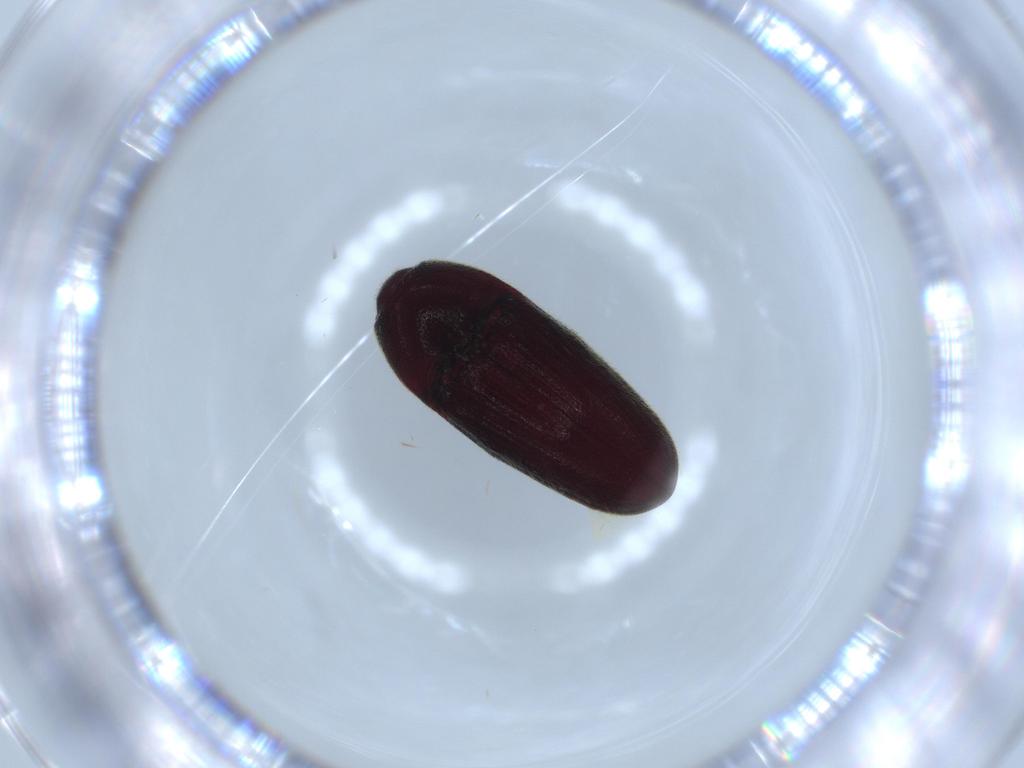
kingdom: Animalia
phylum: Arthropoda
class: Insecta
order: Coleoptera
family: Throscidae
